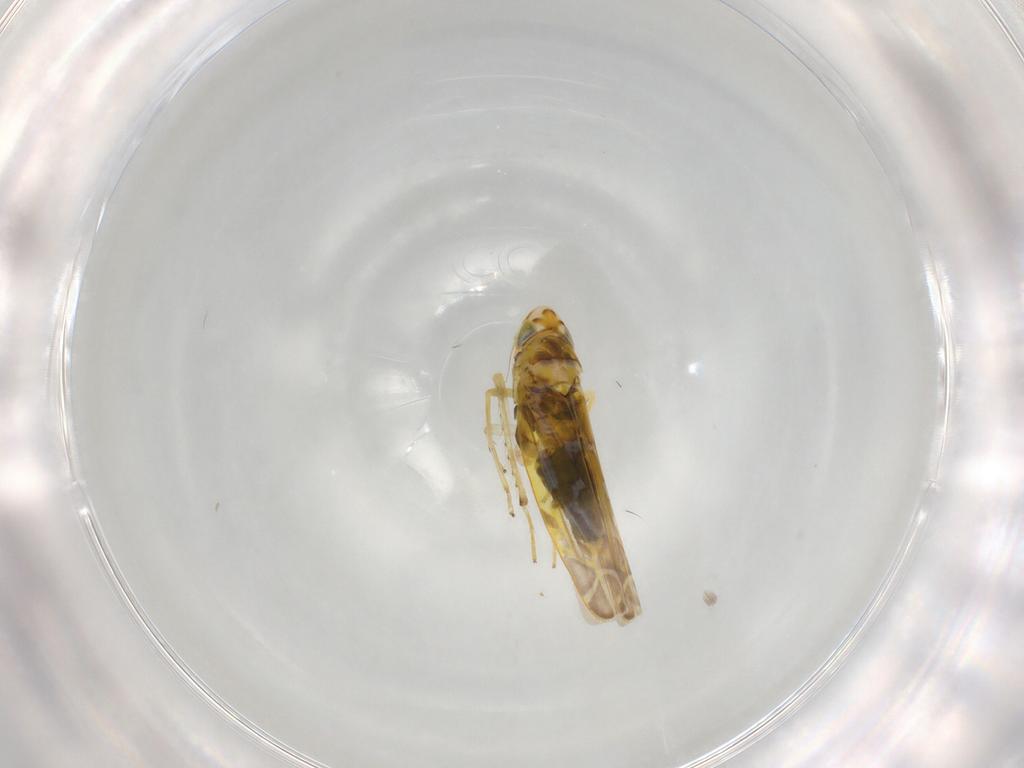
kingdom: Animalia
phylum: Arthropoda
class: Insecta
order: Hemiptera
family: Cicadellidae
